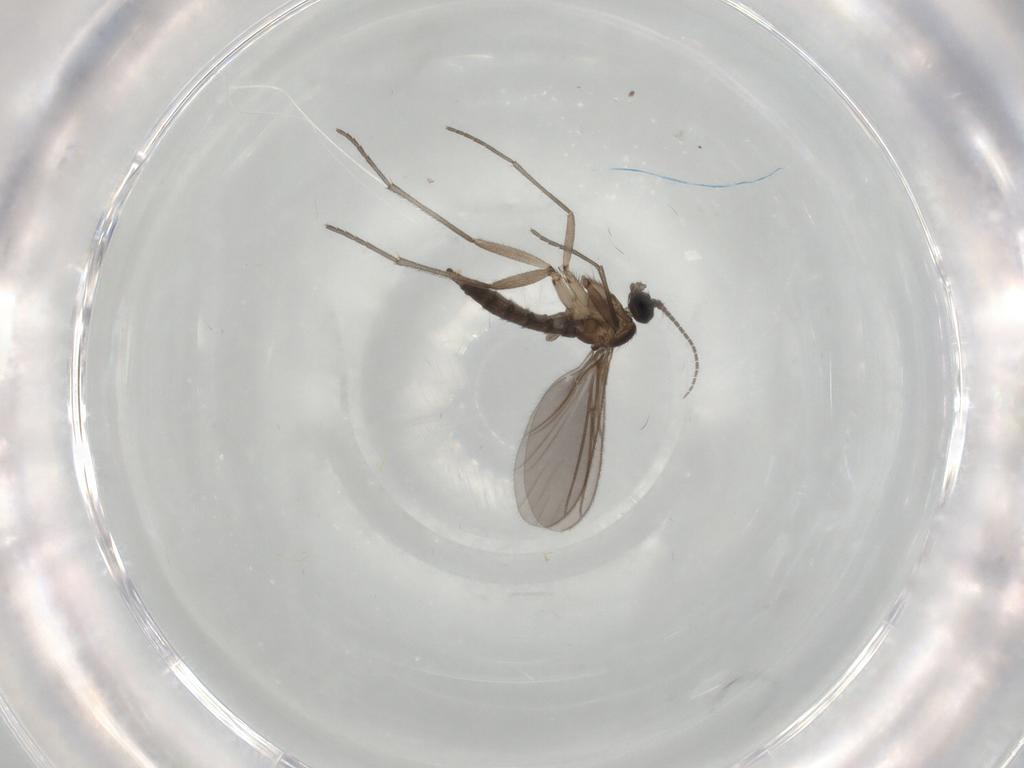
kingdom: Animalia
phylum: Arthropoda
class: Insecta
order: Diptera
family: Sciaridae
